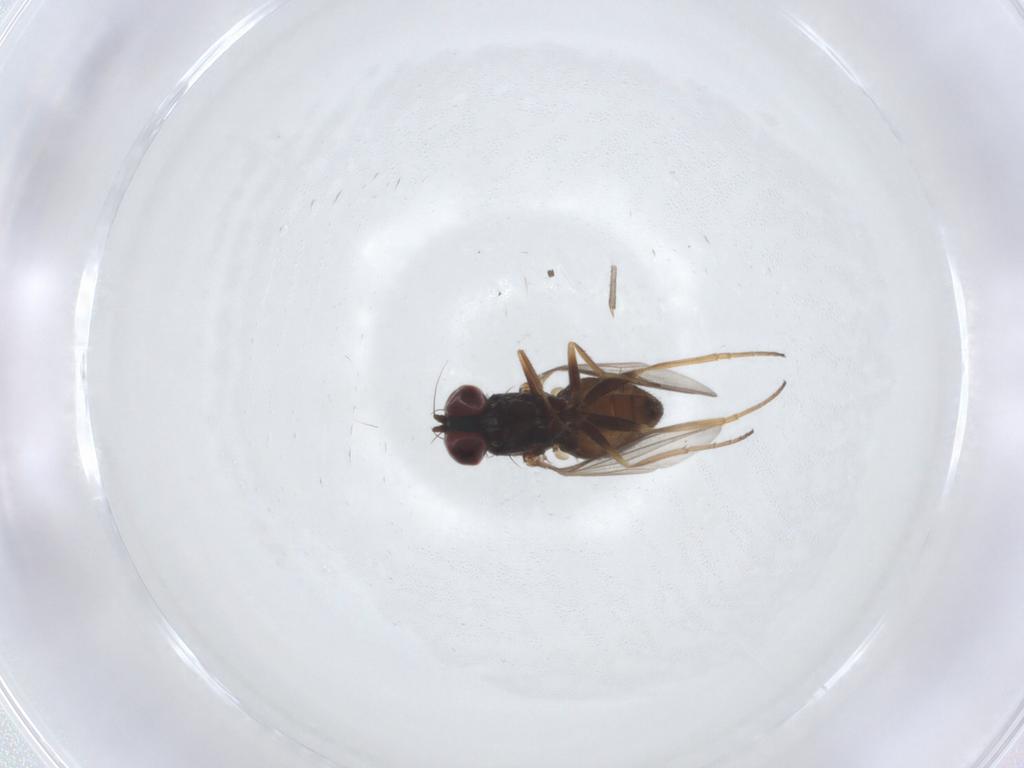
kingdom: Animalia
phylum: Arthropoda
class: Insecta
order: Diptera
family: Dolichopodidae
